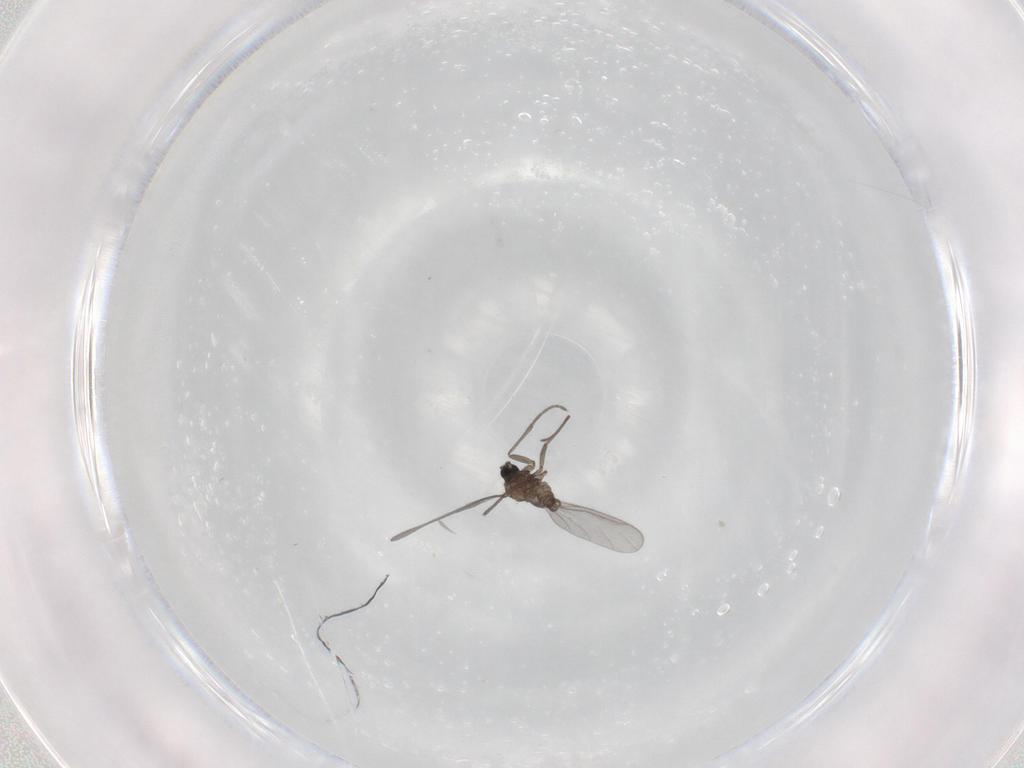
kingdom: Animalia
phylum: Arthropoda
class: Insecta
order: Diptera
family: Sciaridae
